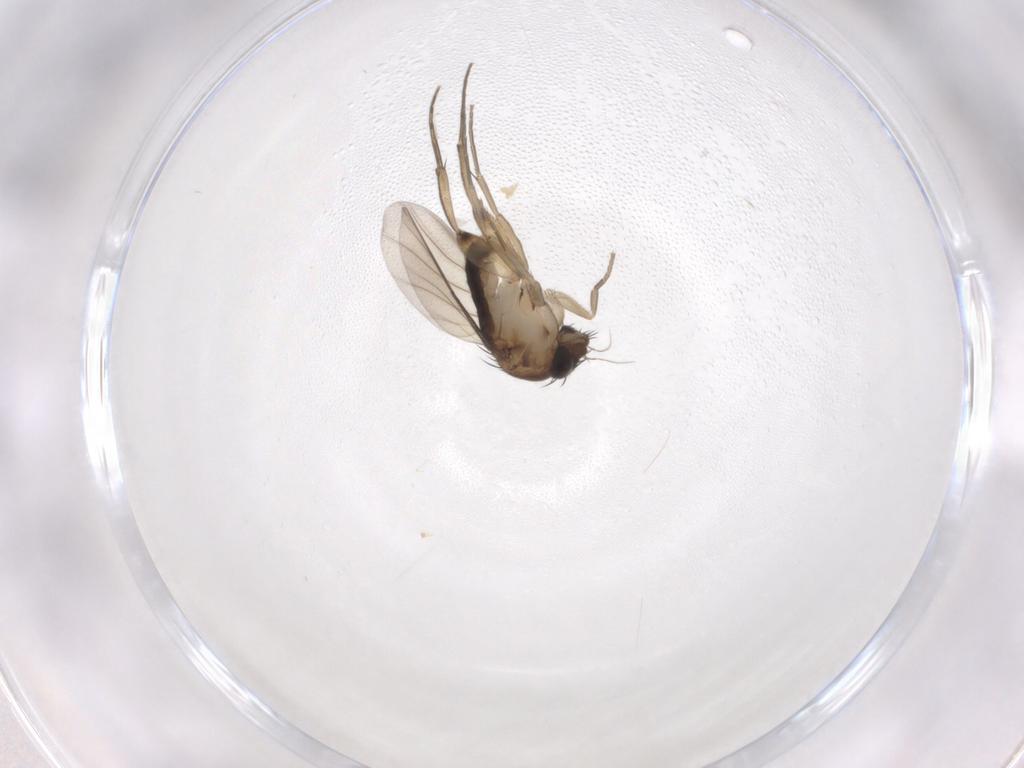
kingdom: Animalia
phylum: Arthropoda
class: Insecta
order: Diptera
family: Phoridae
